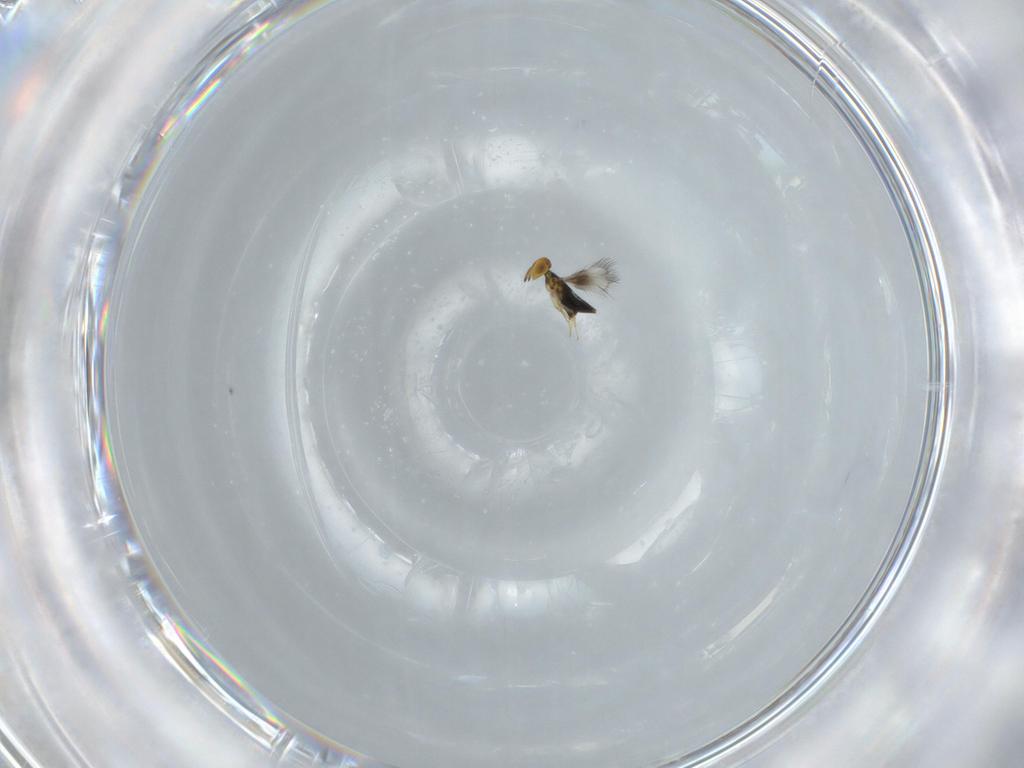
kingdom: Animalia
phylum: Arthropoda
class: Insecta
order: Hymenoptera
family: Signiphoridae
